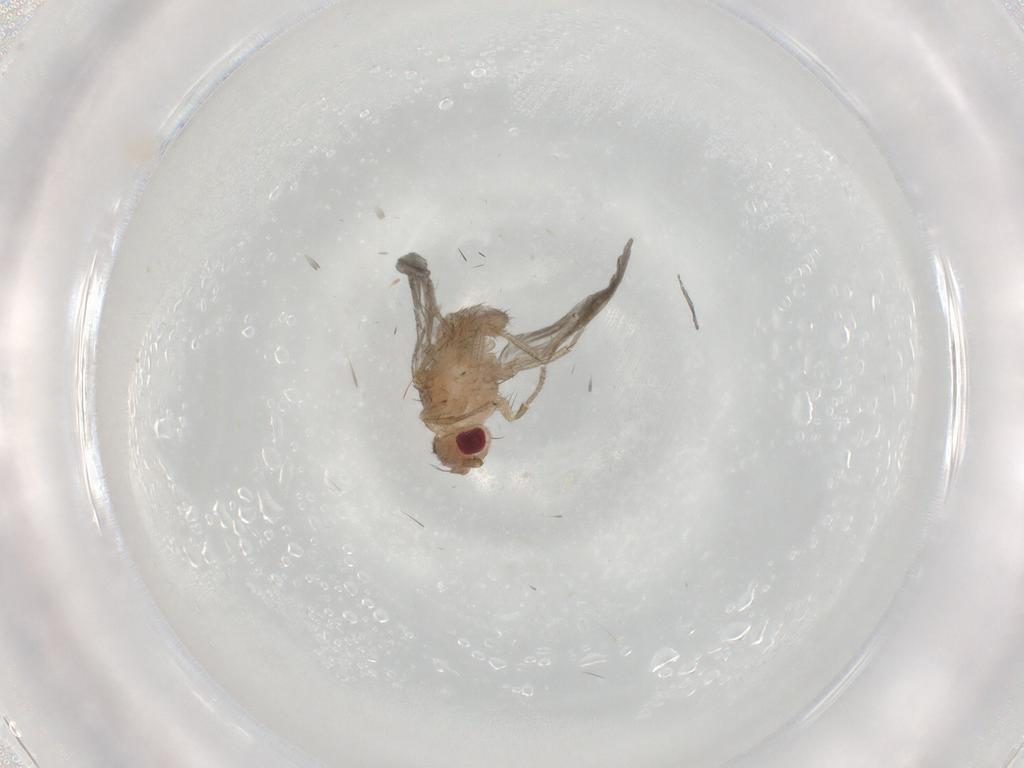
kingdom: Animalia
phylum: Arthropoda
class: Insecta
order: Diptera
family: Drosophilidae
